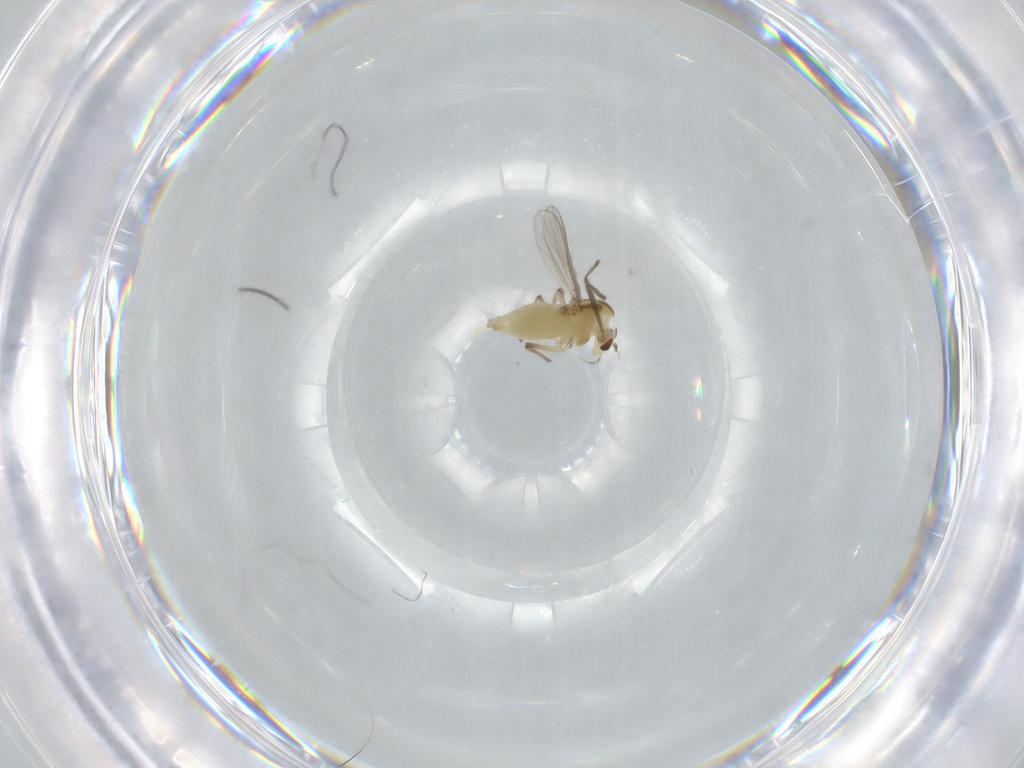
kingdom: Animalia
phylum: Arthropoda
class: Insecta
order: Diptera
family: Chironomidae
